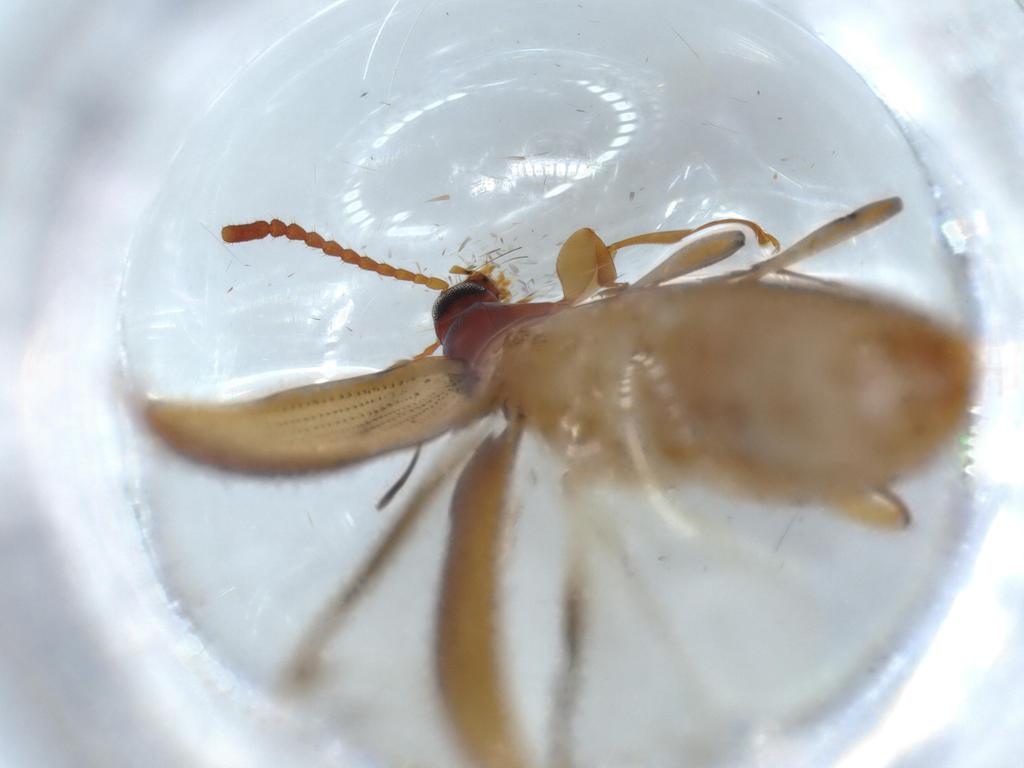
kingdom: Animalia
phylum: Arthropoda
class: Insecta
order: Coleoptera
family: Tenebrionidae
